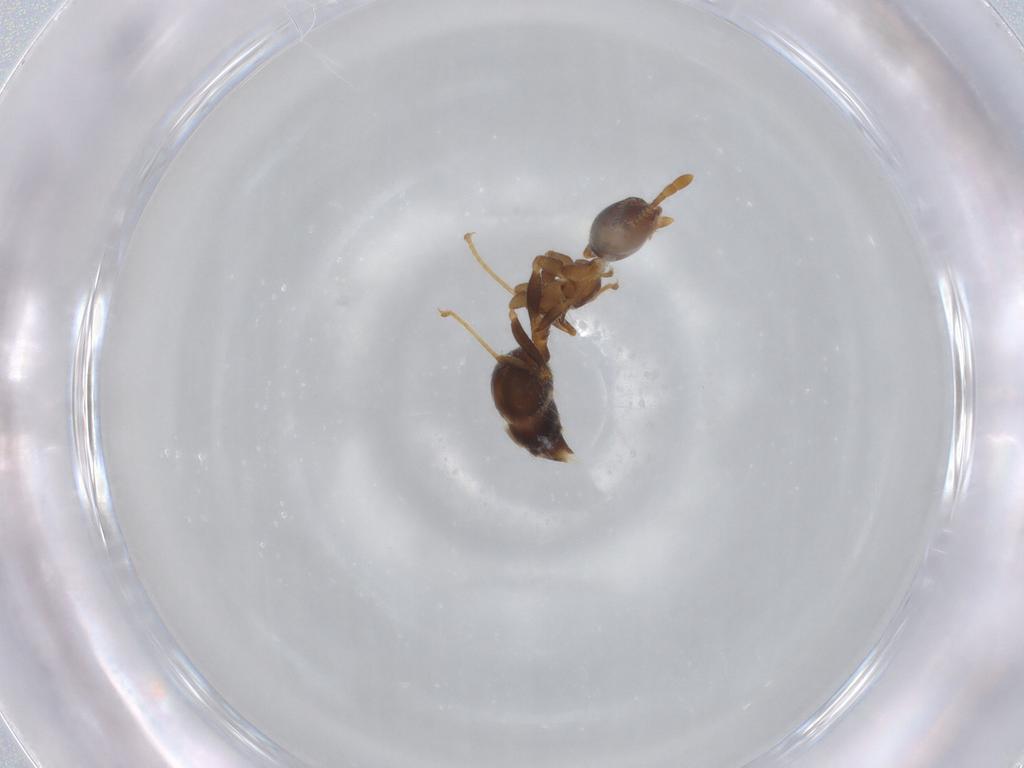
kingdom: Animalia
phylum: Arthropoda
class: Insecta
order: Hymenoptera
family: Formicidae
